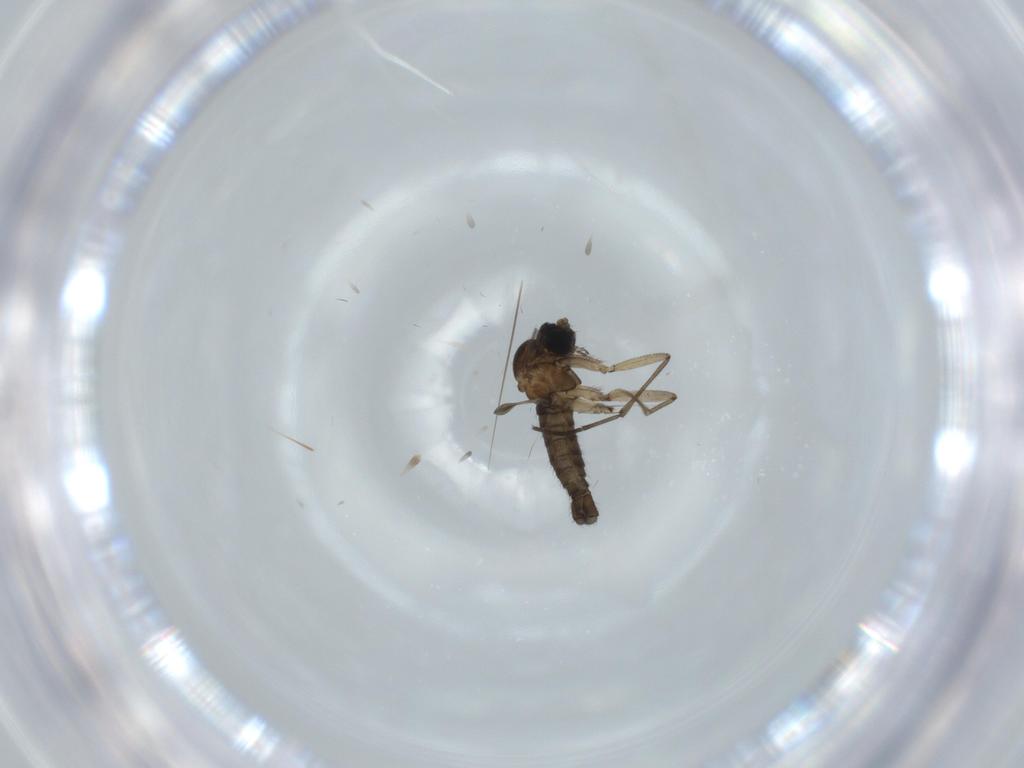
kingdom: Animalia
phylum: Arthropoda
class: Insecta
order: Diptera
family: Sciaridae
